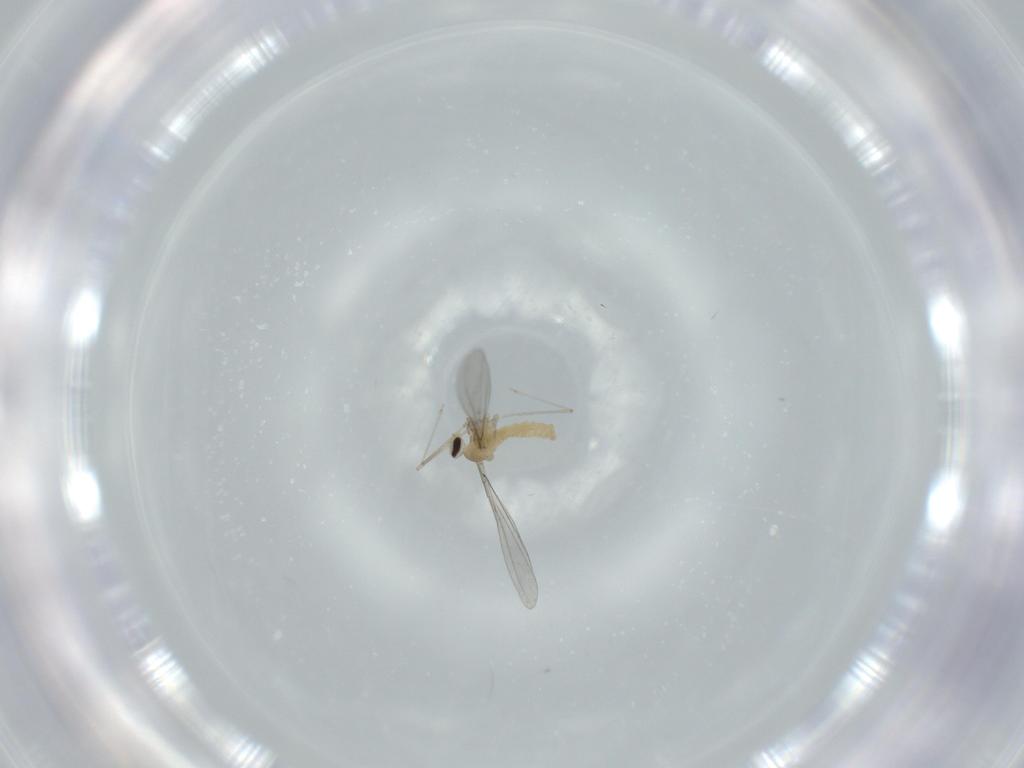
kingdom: Animalia
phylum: Arthropoda
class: Insecta
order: Diptera
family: Cecidomyiidae
